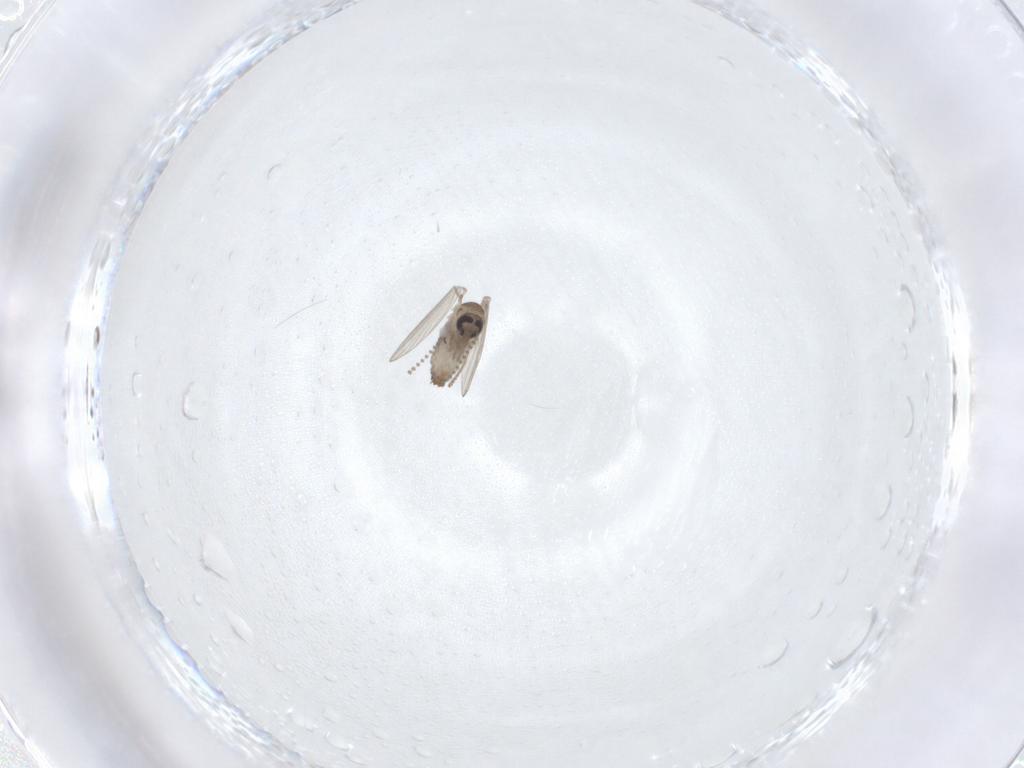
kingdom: Animalia
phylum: Arthropoda
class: Insecta
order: Diptera
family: Psychodidae
